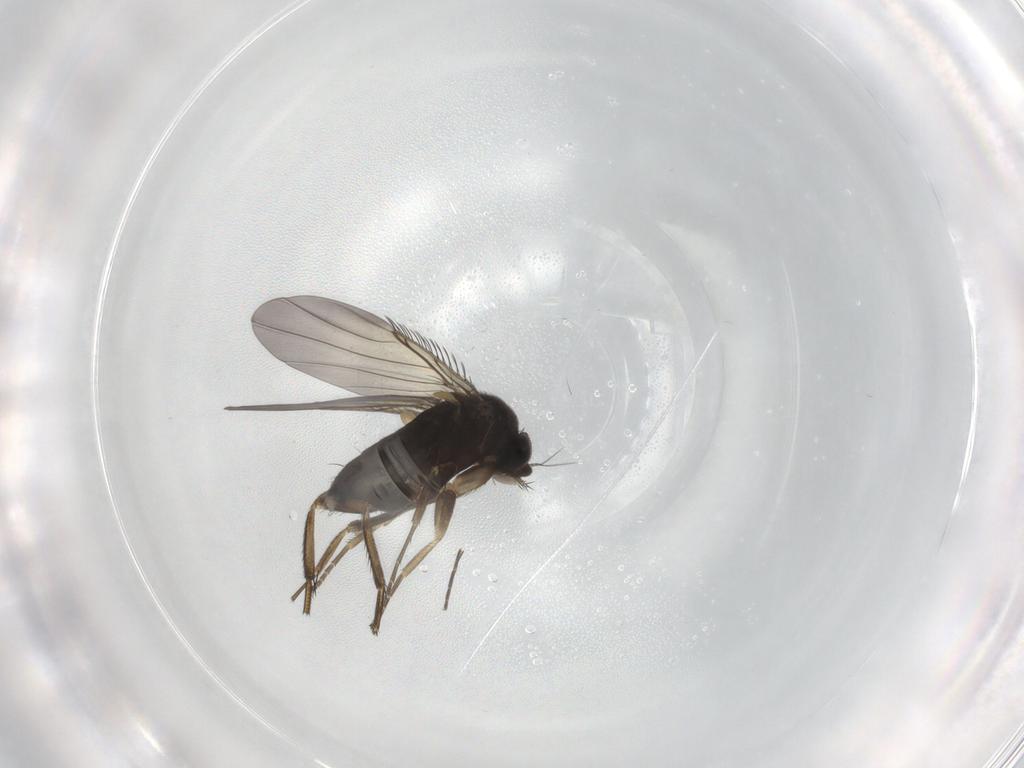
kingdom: Animalia
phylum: Arthropoda
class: Insecta
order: Diptera
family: Phoridae
